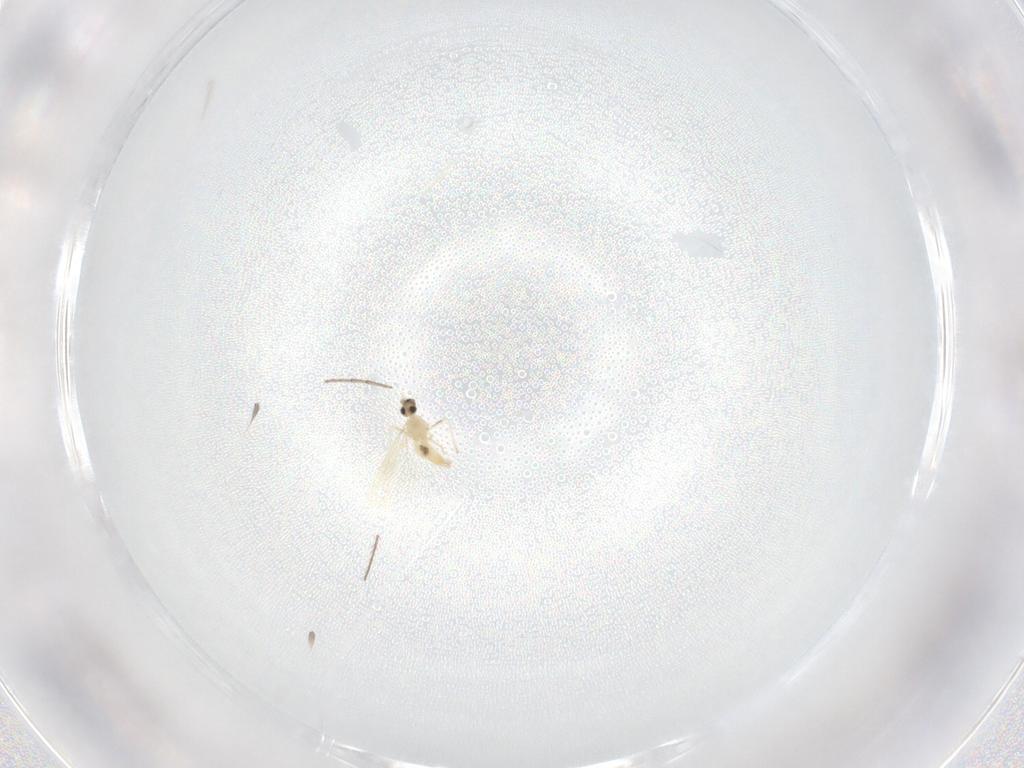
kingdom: Animalia
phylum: Arthropoda
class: Insecta
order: Diptera
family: Cecidomyiidae
